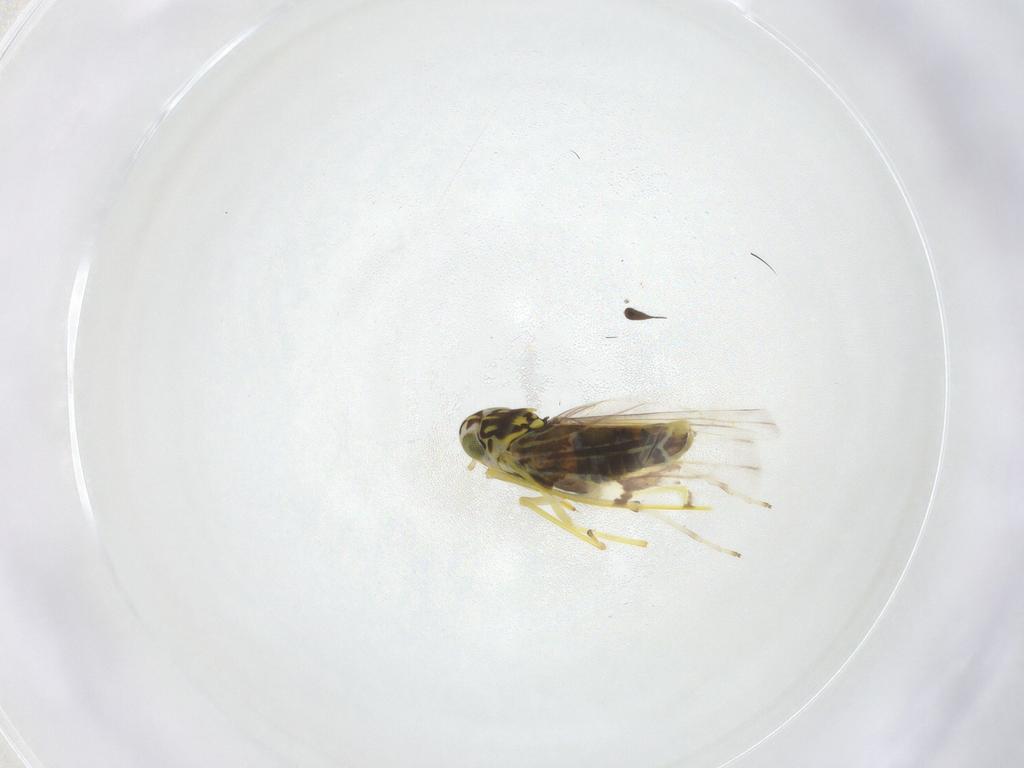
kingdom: Animalia
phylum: Arthropoda
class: Insecta
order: Hemiptera
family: Cicadellidae
